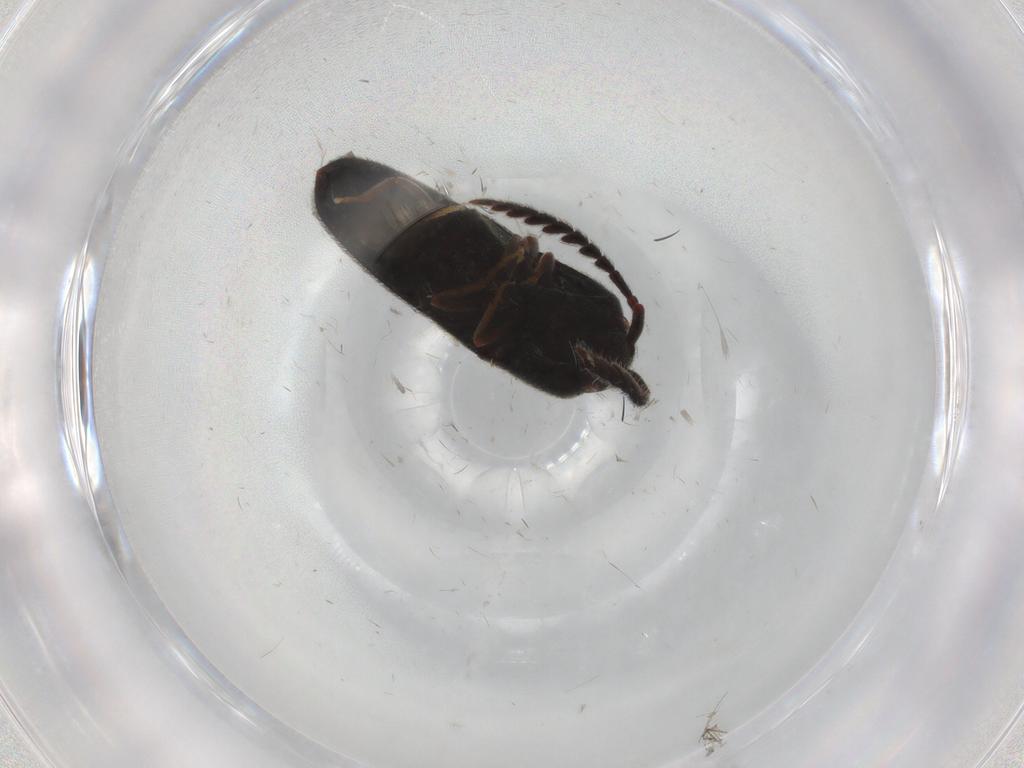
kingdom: Animalia
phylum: Arthropoda
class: Insecta
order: Coleoptera
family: Eucnemidae
